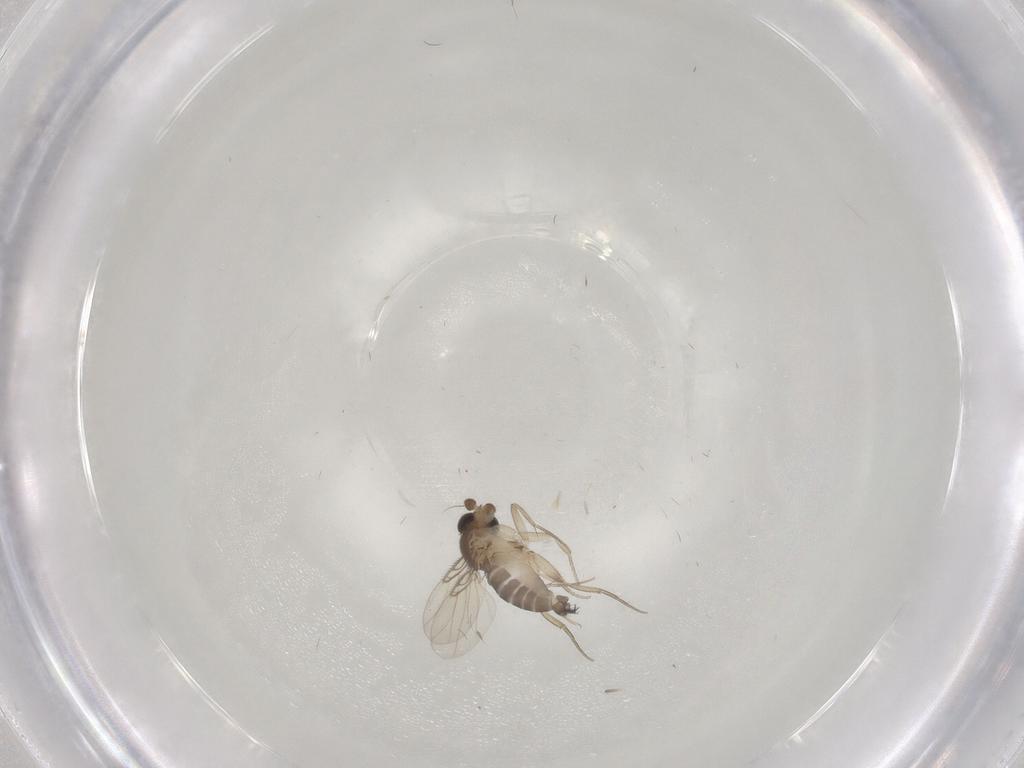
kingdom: Animalia
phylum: Arthropoda
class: Insecta
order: Diptera
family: Phoridae
